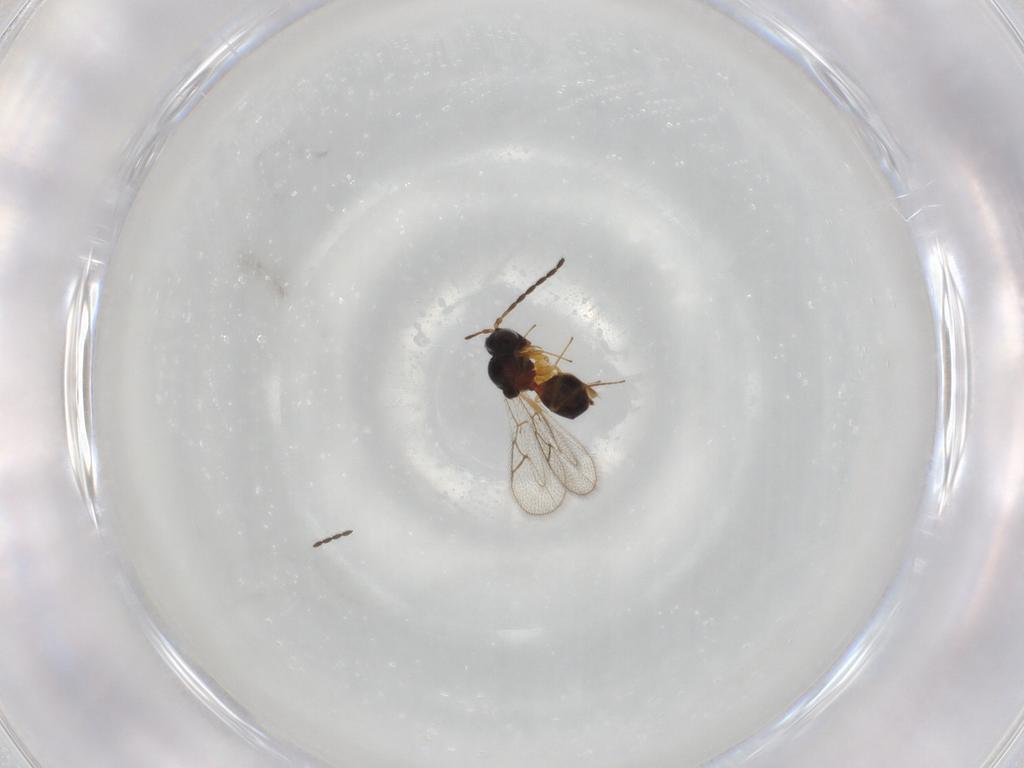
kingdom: Animalia
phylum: Arthropoda
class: Insecta
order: Hymenoptera
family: Figitidae
